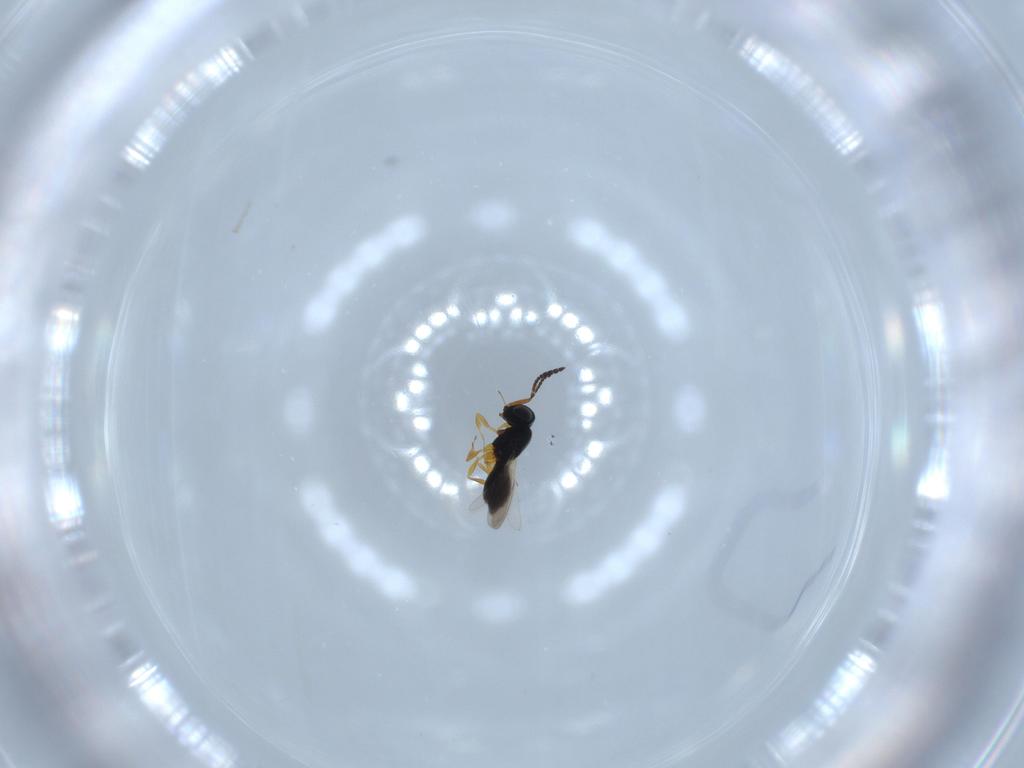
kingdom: Animalia
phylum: Arthropoda
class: Insecta
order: Hymenoptera
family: Scelionidae
